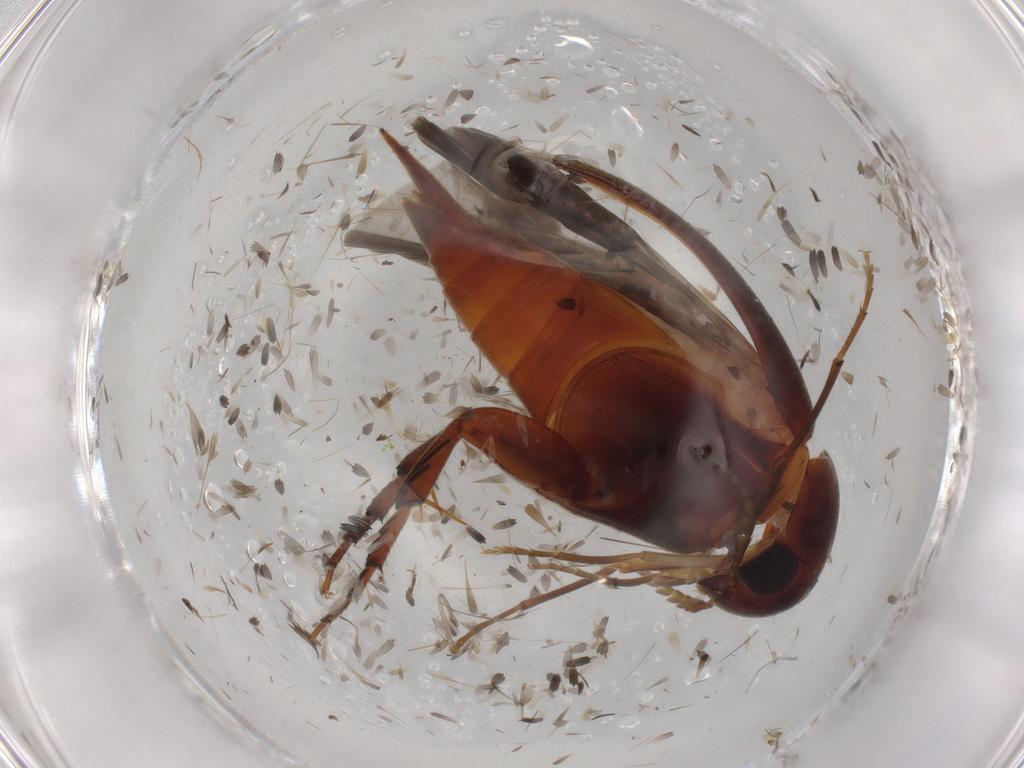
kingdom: Animalia
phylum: Arthropoda
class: Insecta
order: Coleoptera
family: Mordellidae
